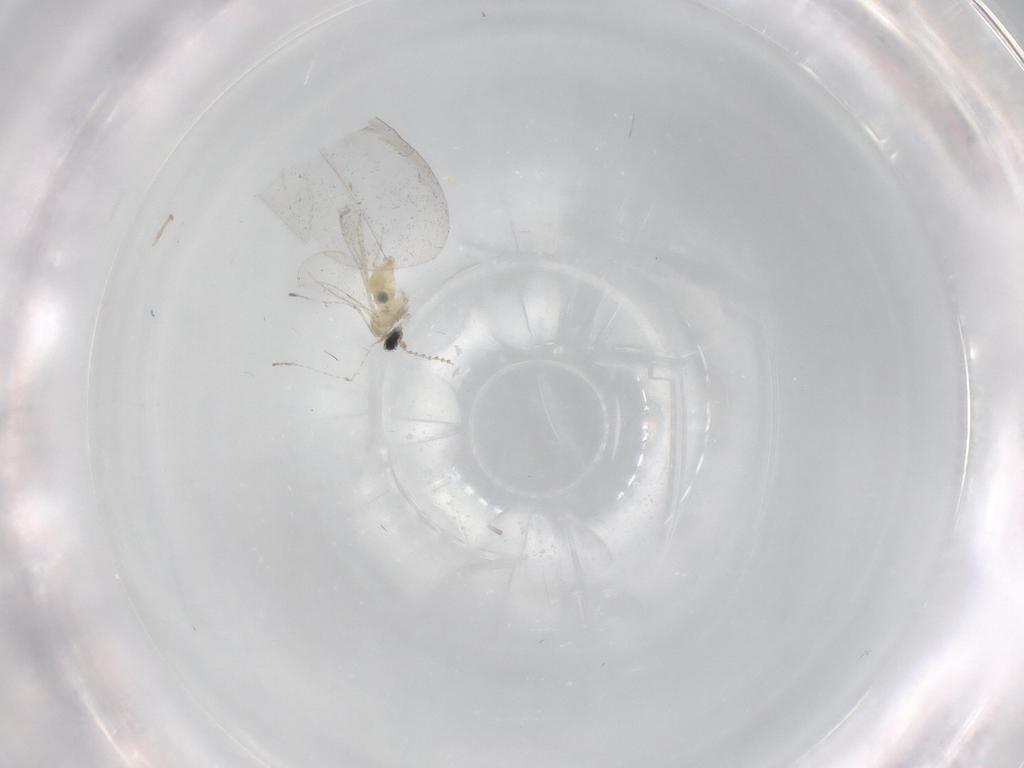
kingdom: Animalia
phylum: Arthropoda
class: Insecta
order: Diptera
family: Cecidomyiidae
